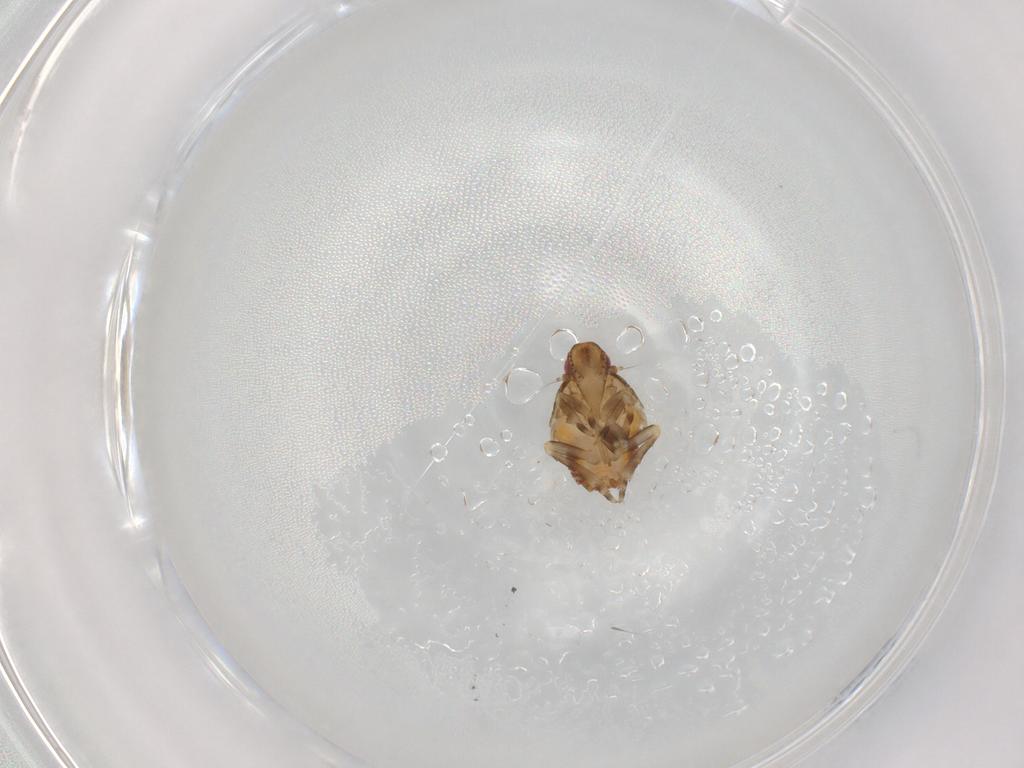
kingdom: Animalia
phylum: Arthropoda
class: Insecta
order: Hemiptera
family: Flatidae
